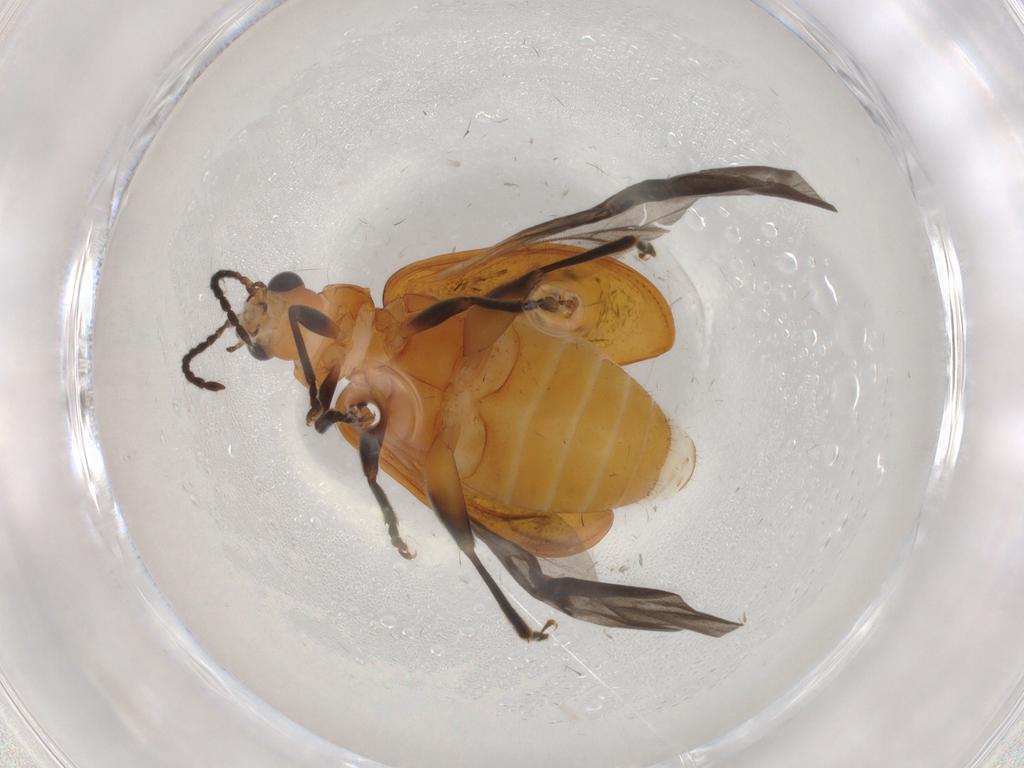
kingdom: Animalia
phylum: Arthropoda
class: Insecta
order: Coleoptera
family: Chrysomelidae
